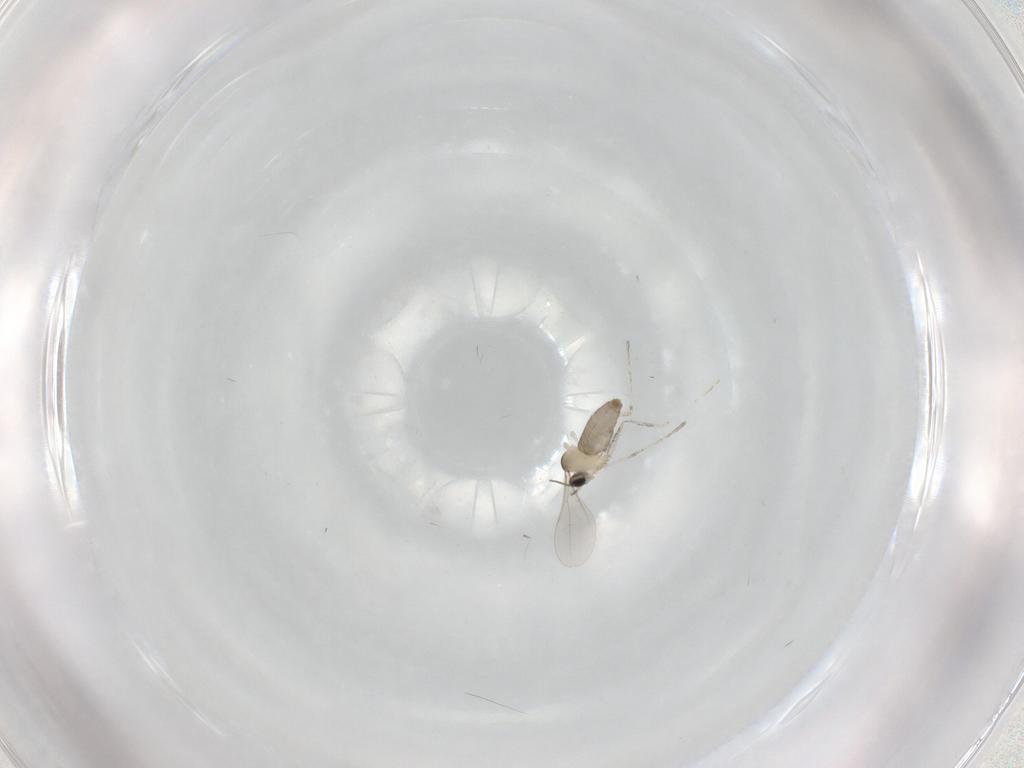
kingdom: Animalia
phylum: Arthropoda
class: Insecta
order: Diptera
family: Cecidomyiidae
